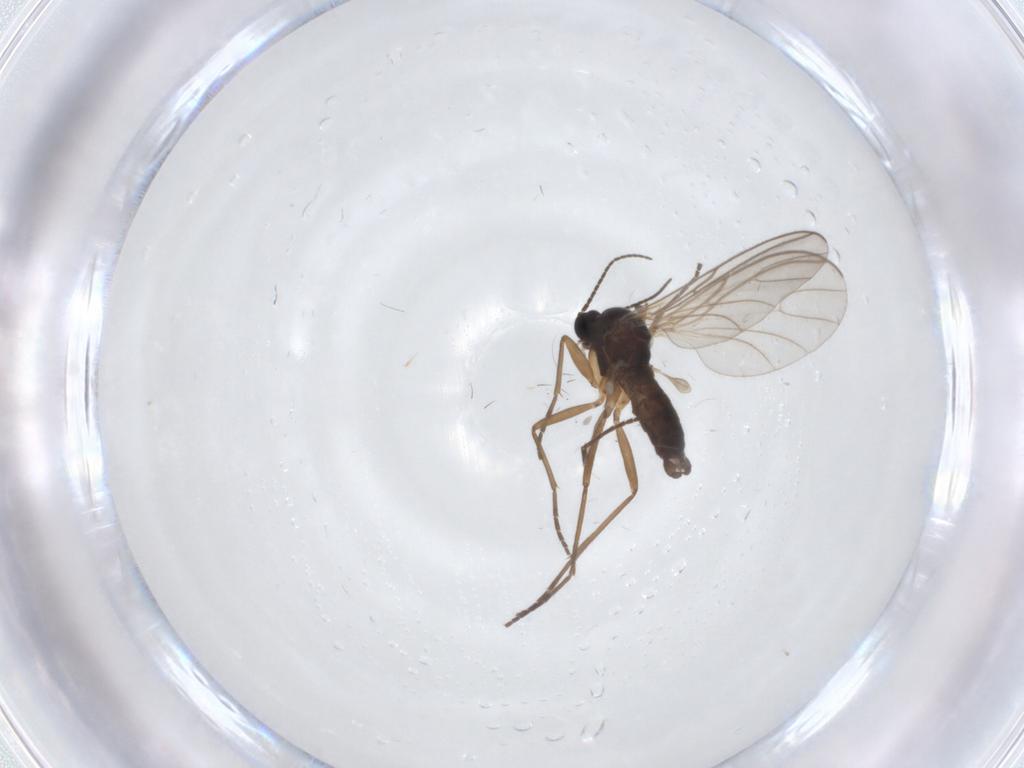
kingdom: Animalia
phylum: Arthropoda
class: Insecta
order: Diptera
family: Sciaridae
